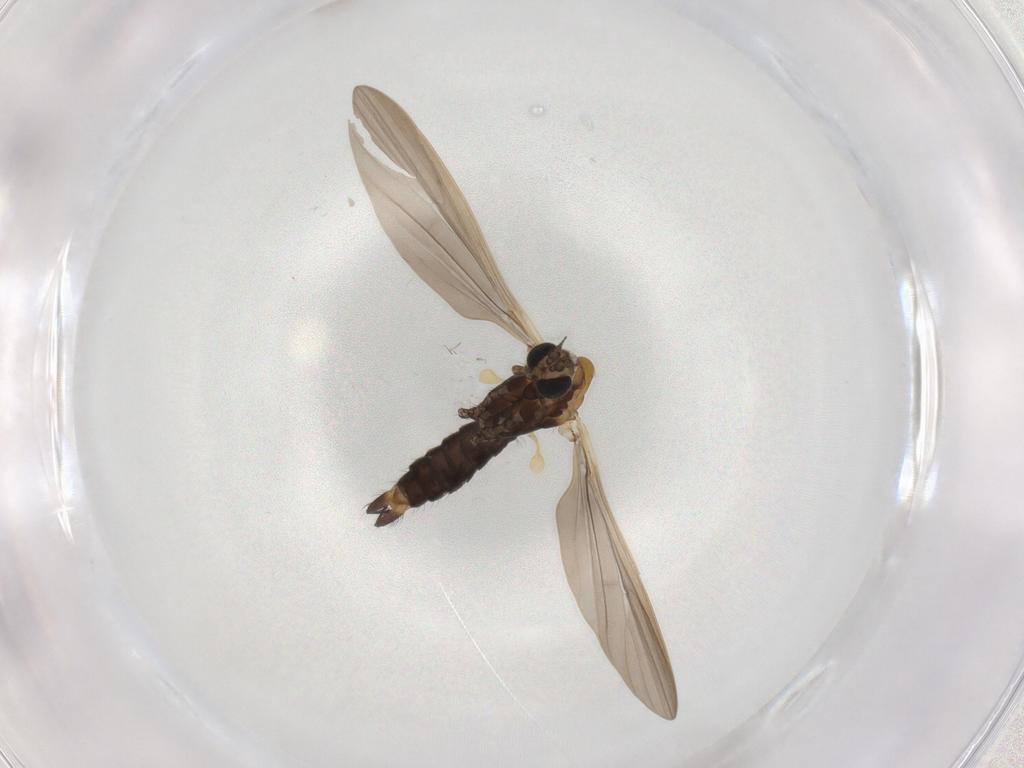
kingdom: Animalia
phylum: Arthropoda
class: Insecta
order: Diptera
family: Limoniidae
